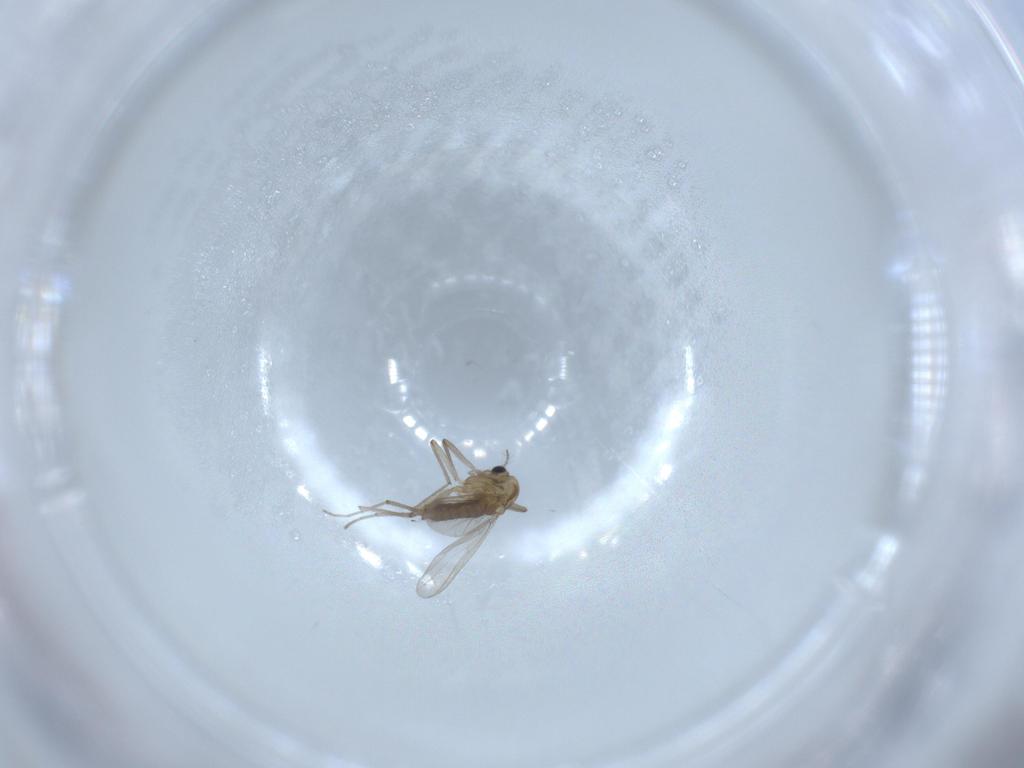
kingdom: Animalia
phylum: Arthropoda
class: Insecta
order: Diptera
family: Chironomidae
